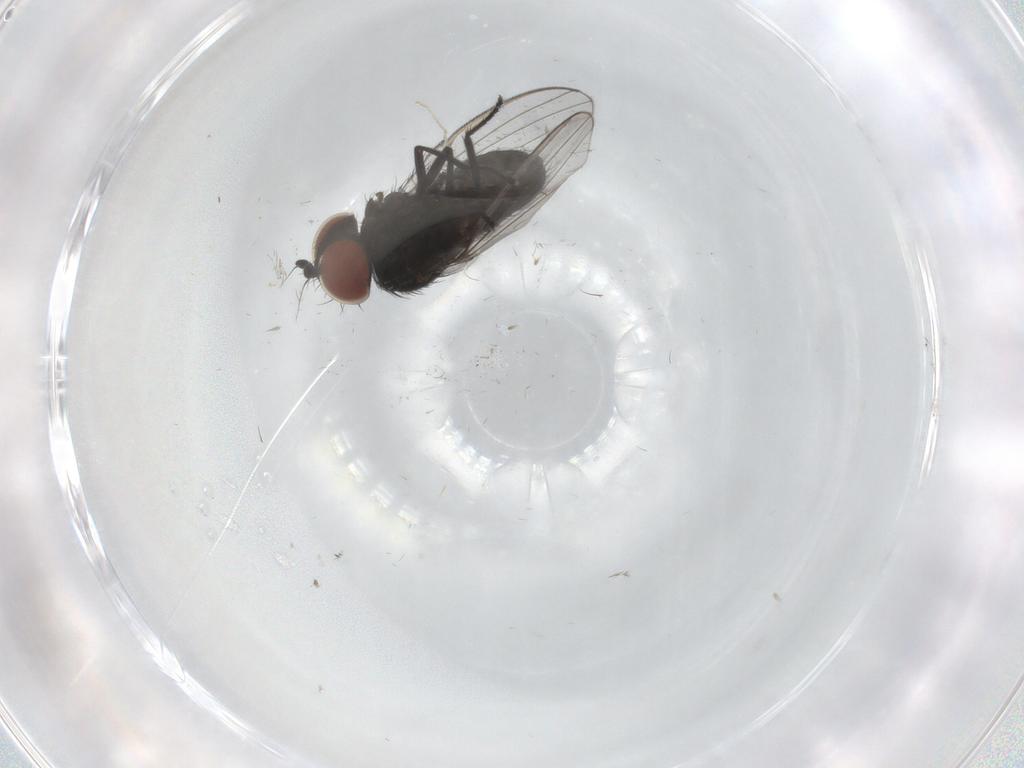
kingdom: Animalia
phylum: Arthropoda
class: Insecta
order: Diptera
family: Cecidomyiidae
